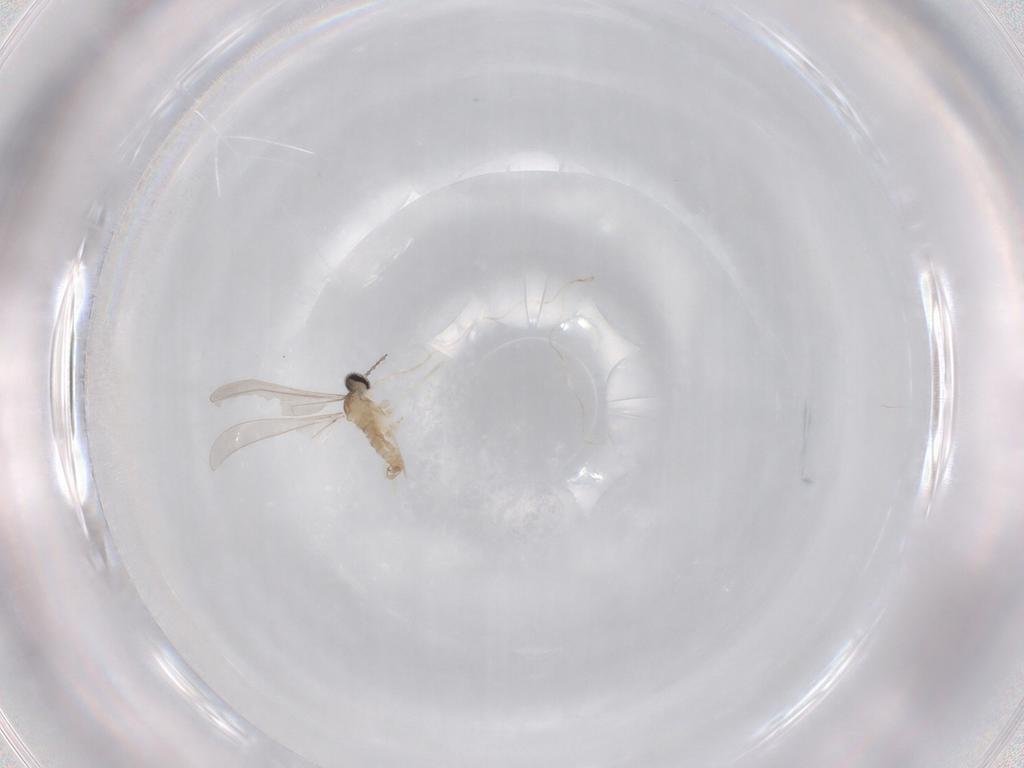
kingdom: Animalia
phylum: Arthropoda
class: Insecta
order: Diptera
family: Cecidomyiidae
